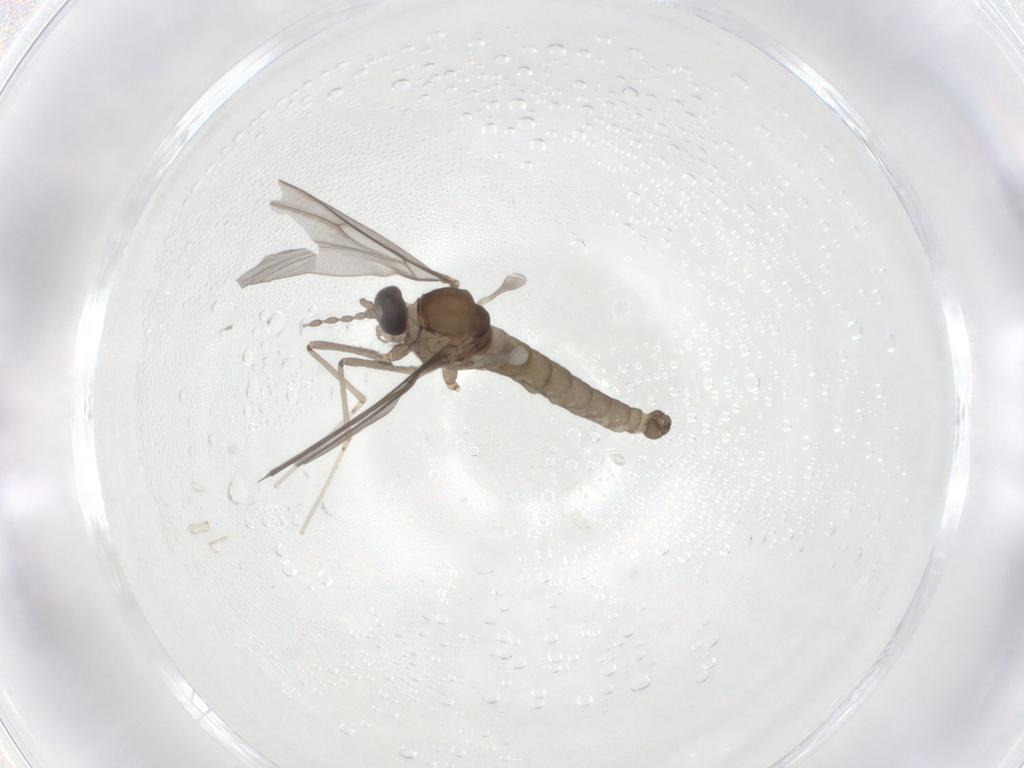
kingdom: Animalia
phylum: Arthropoda
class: Insecta
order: Diptera
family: Cecidomyiidae
